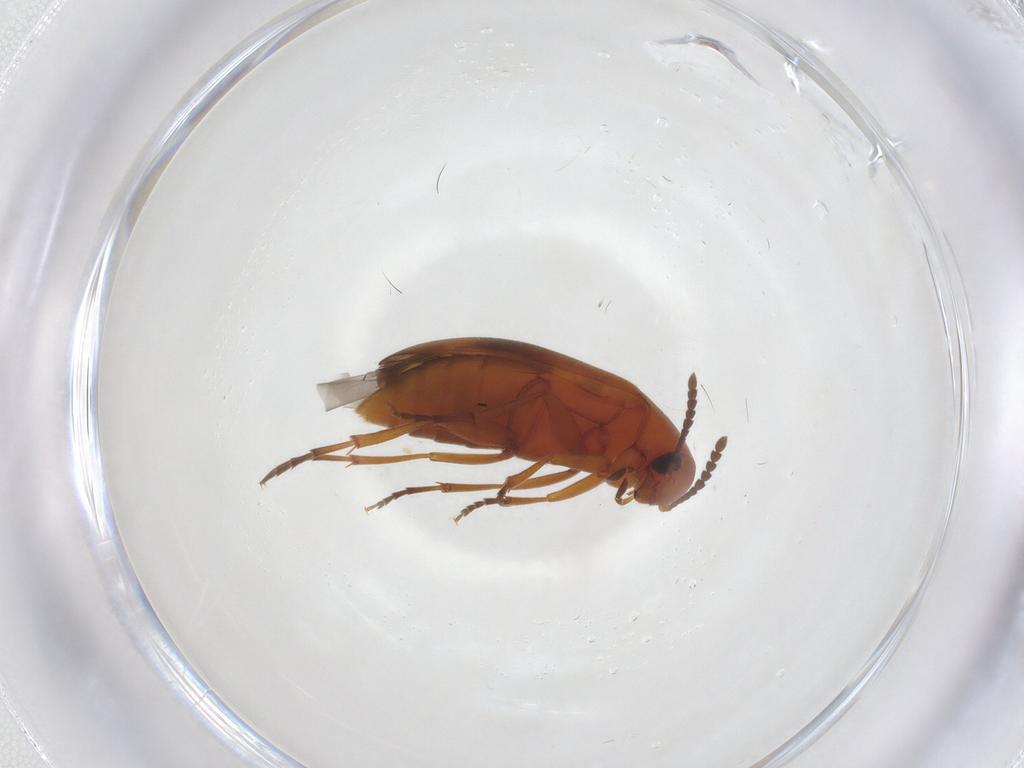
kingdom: Animalia
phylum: Arthropoda
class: Insecta
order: Coleoptera
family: Scraptiidae
